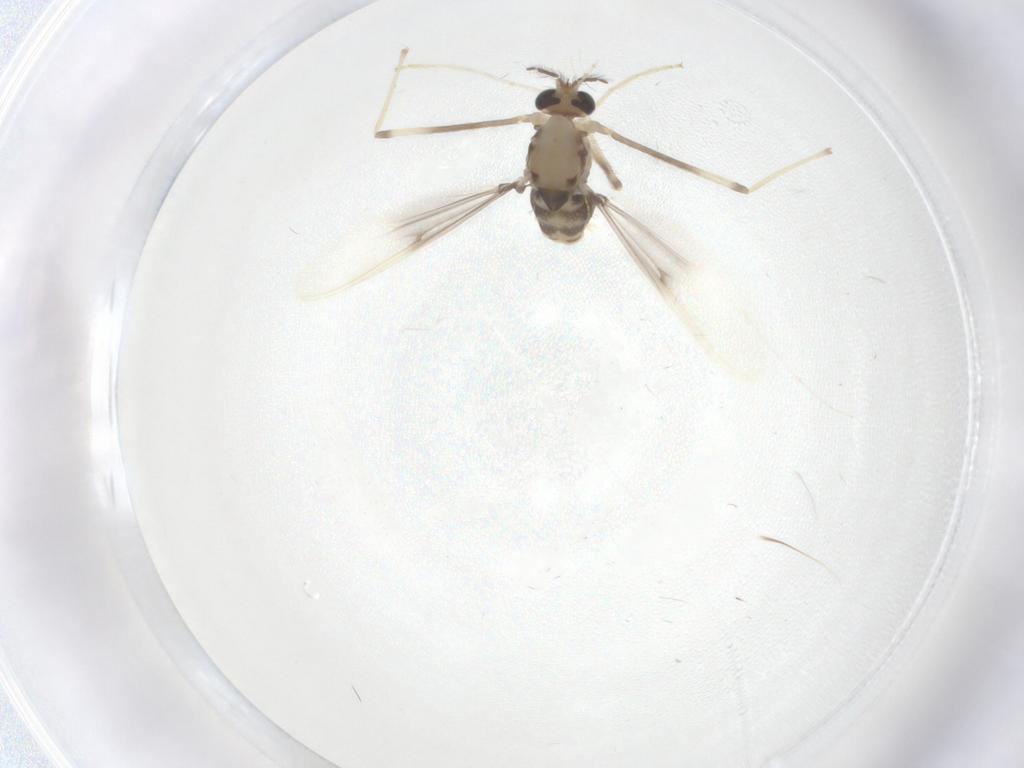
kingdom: Animalia
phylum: Arthropoda
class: Insecta
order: Diptera
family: Chironomidae
